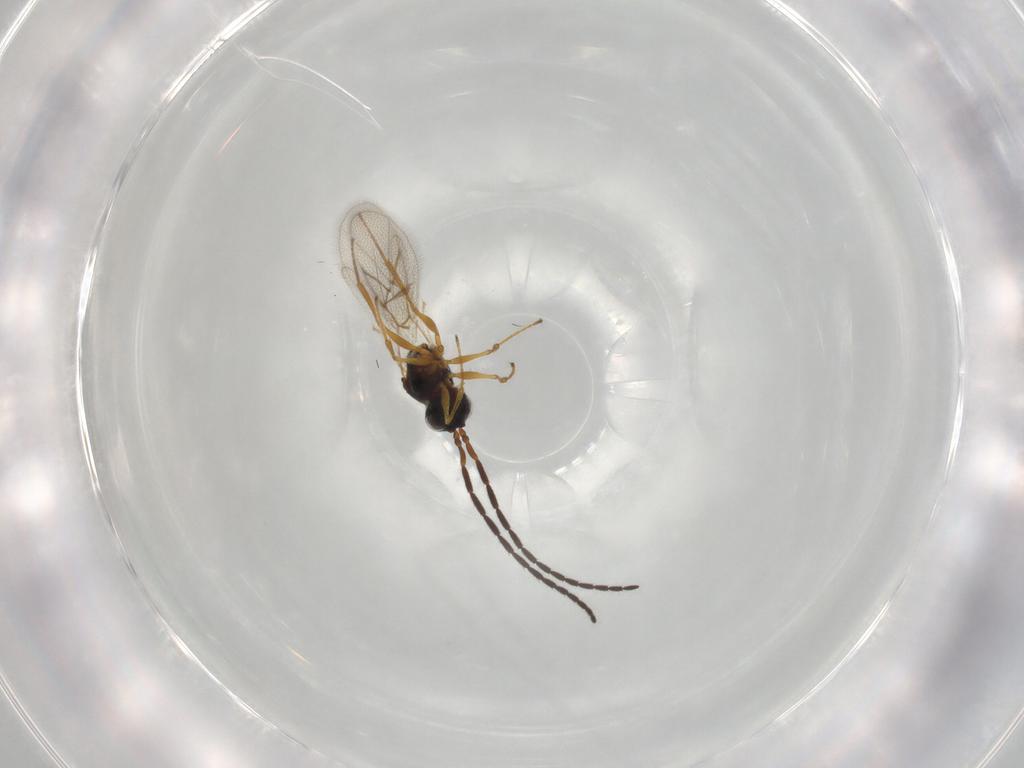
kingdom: Animalia
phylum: Arthropoda
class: Insecta
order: Hymenoptera
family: Figitidae
